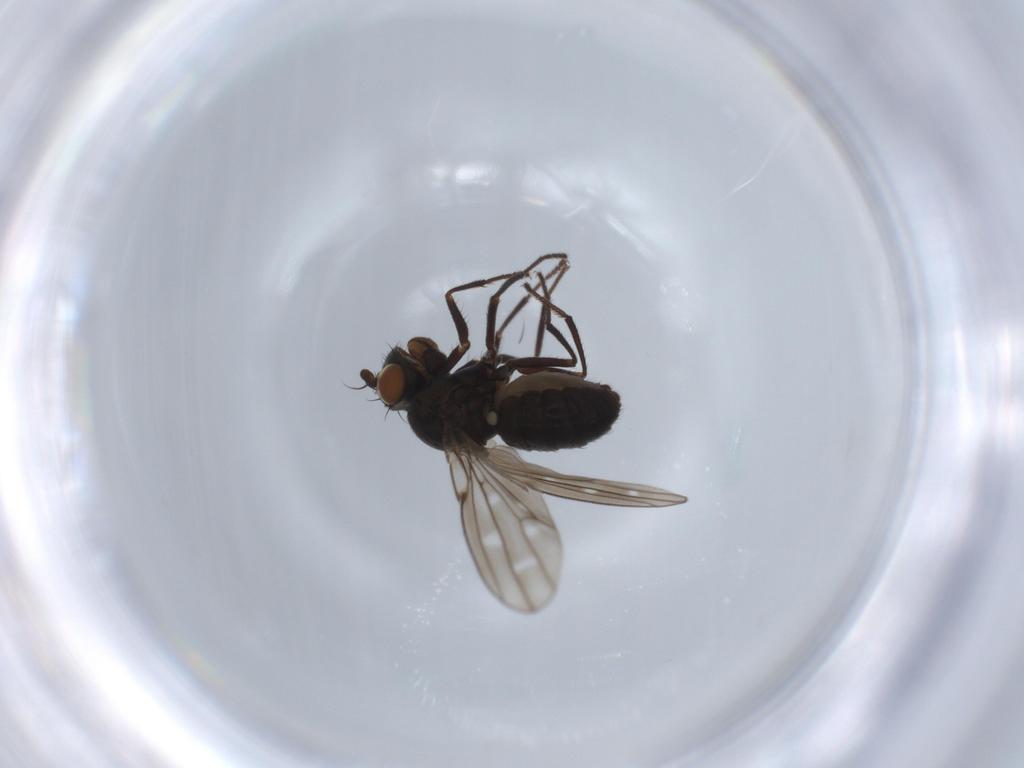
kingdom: Animalia
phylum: Arthropoda
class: Insecta
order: Diptera
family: Ephydridae
